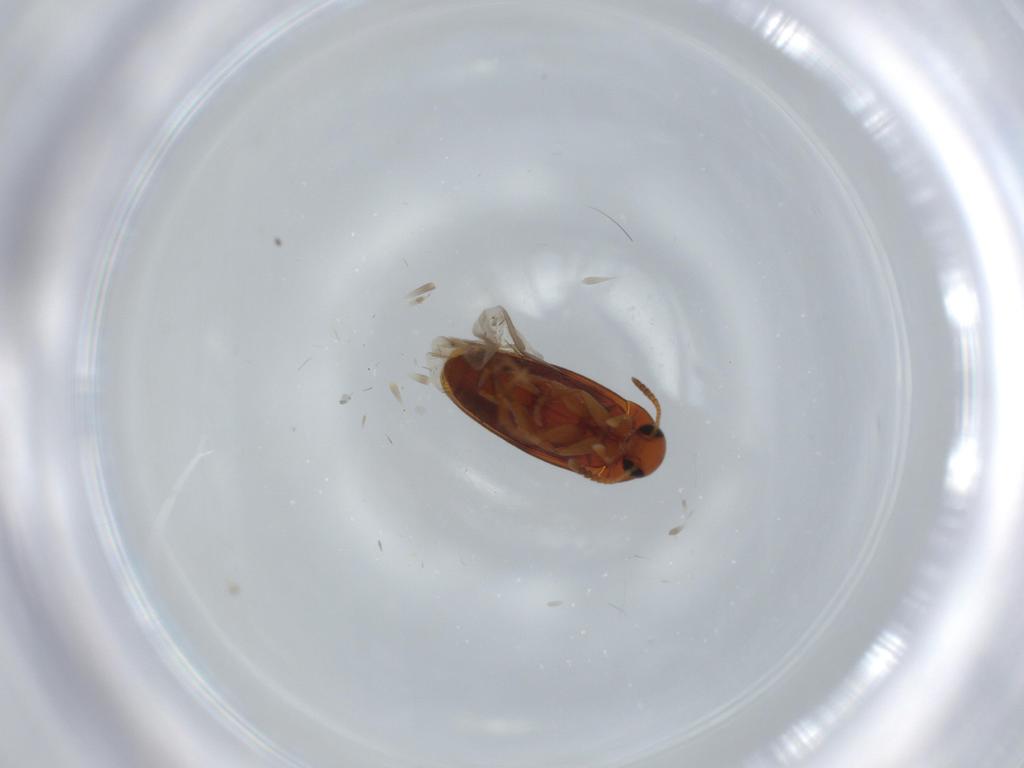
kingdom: Animalia
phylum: Arthropoda
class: Insecta
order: Coleoptera
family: Scraptiidae
